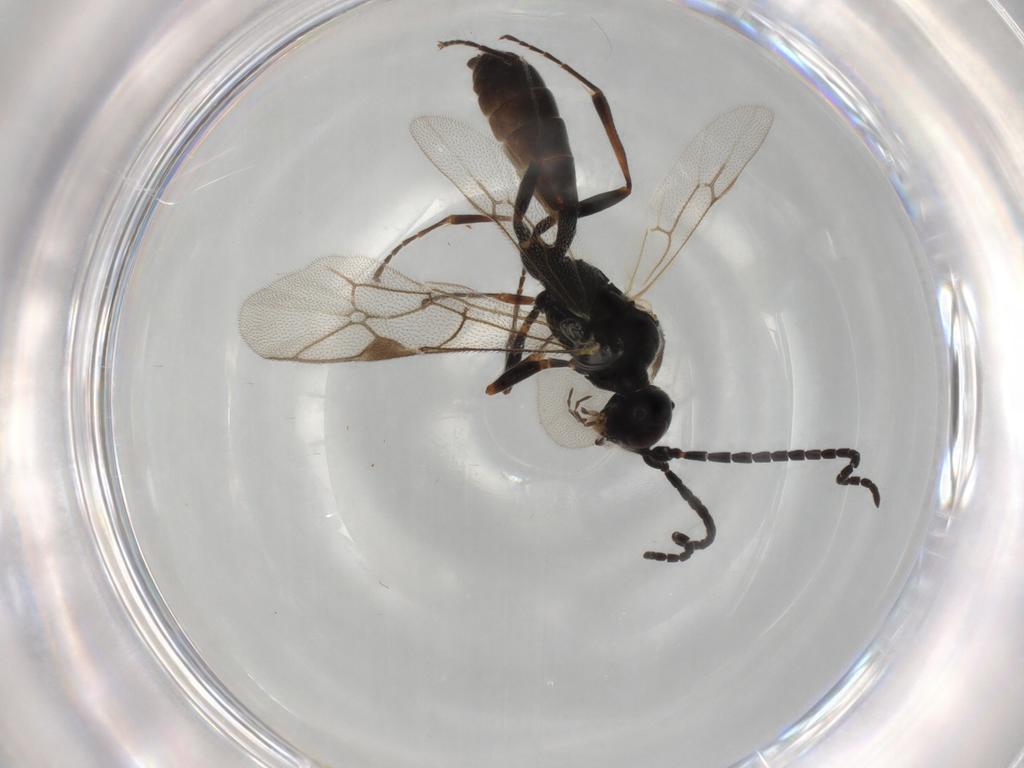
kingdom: Animalia
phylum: Arthropoda
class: Insecta
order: Hymenoptera
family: Ichneumonidae
